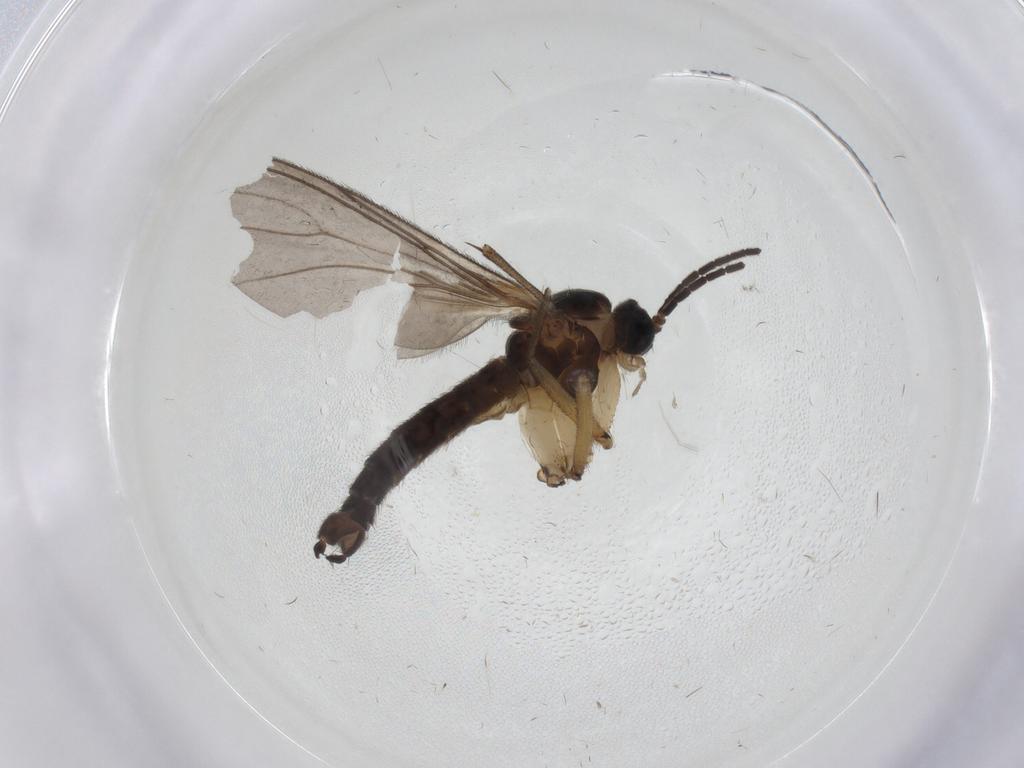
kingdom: Animalia
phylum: Arthropoda
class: Insecta
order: Diptera
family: Sciaridae
